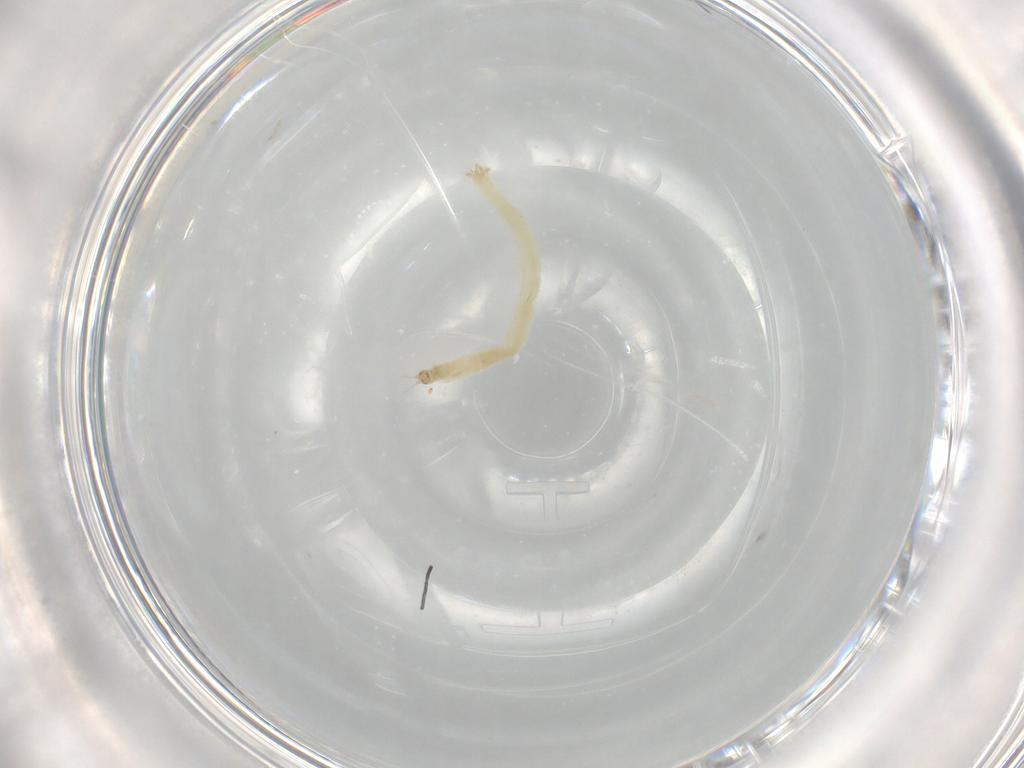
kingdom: Animalia
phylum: Arthropoda
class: Insecta
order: Diptera
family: Chironomidae
